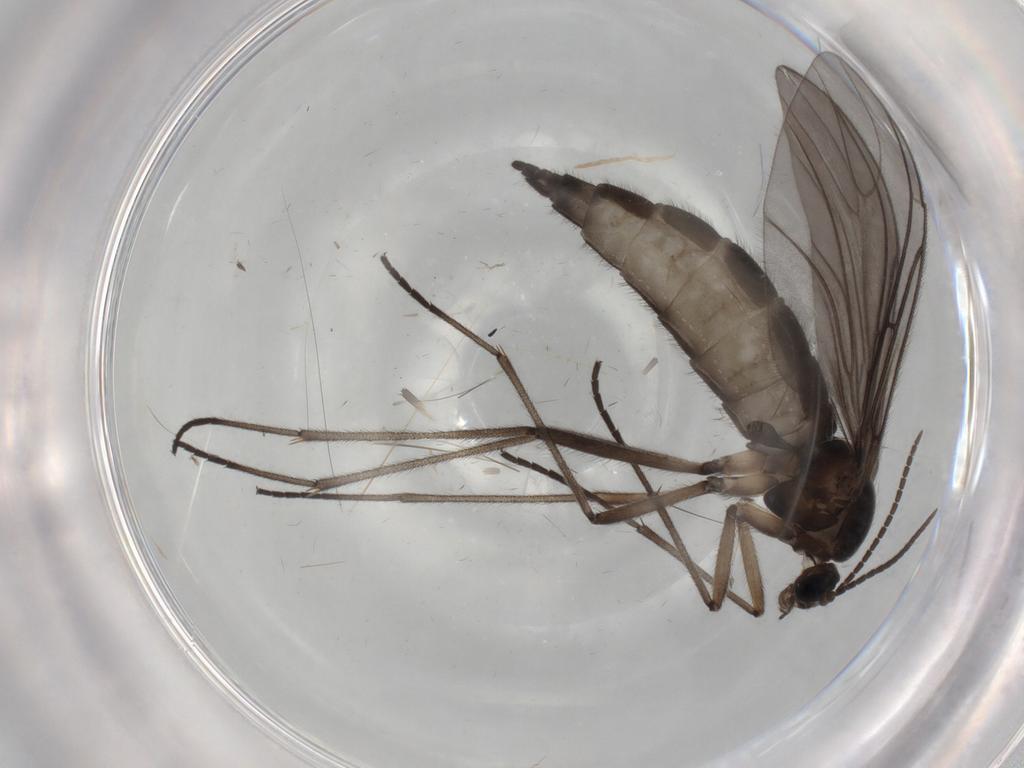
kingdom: Animalia
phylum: Arthropoda
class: Insecta
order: Diptera
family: Sciaridae
